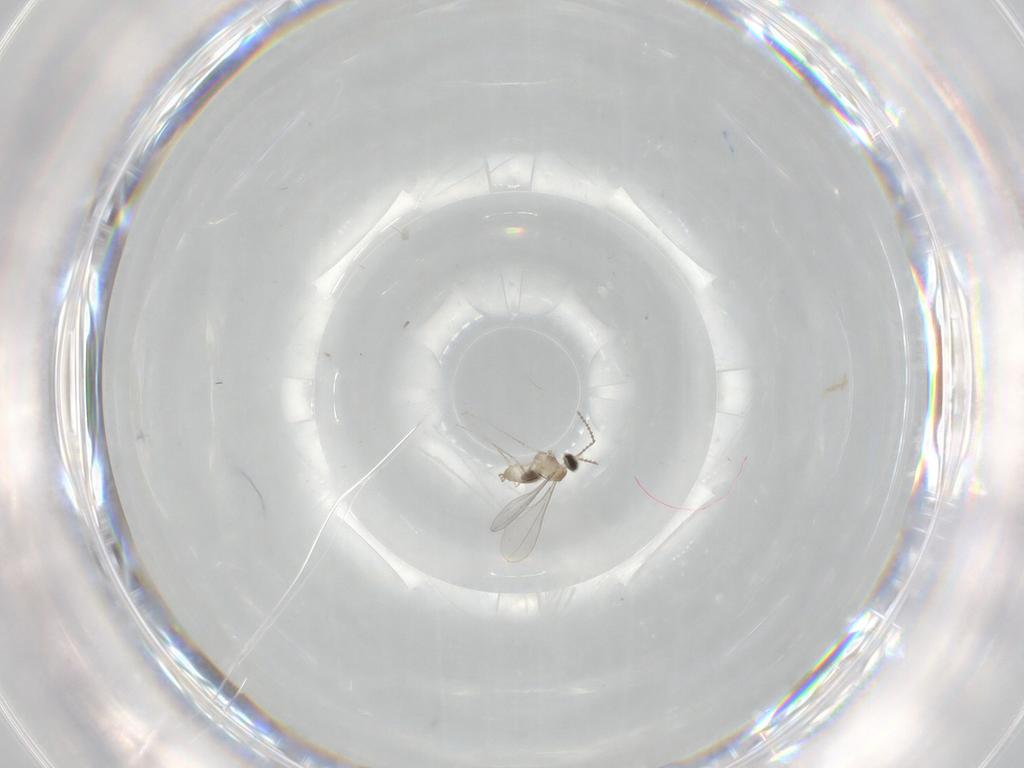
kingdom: Animalia
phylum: Arthropoda
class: Insecta
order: Diptera
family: Cecidomyiidae
